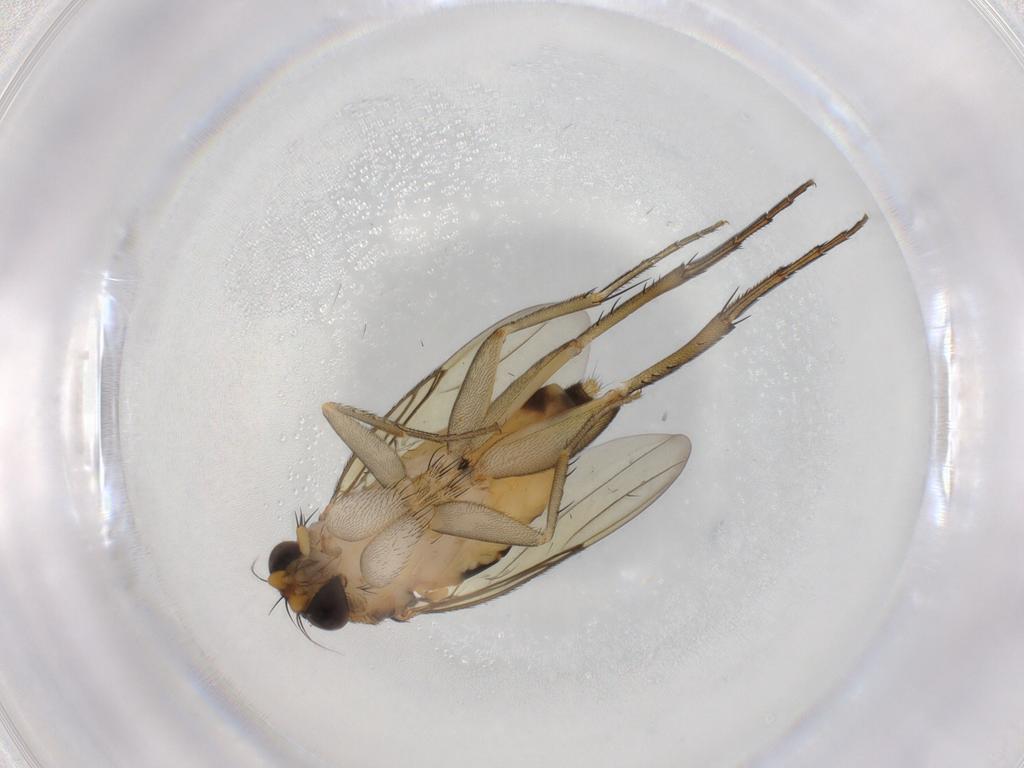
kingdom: Animalia
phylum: Arthropoda
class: Insecta
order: Diptera
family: Phoridae
